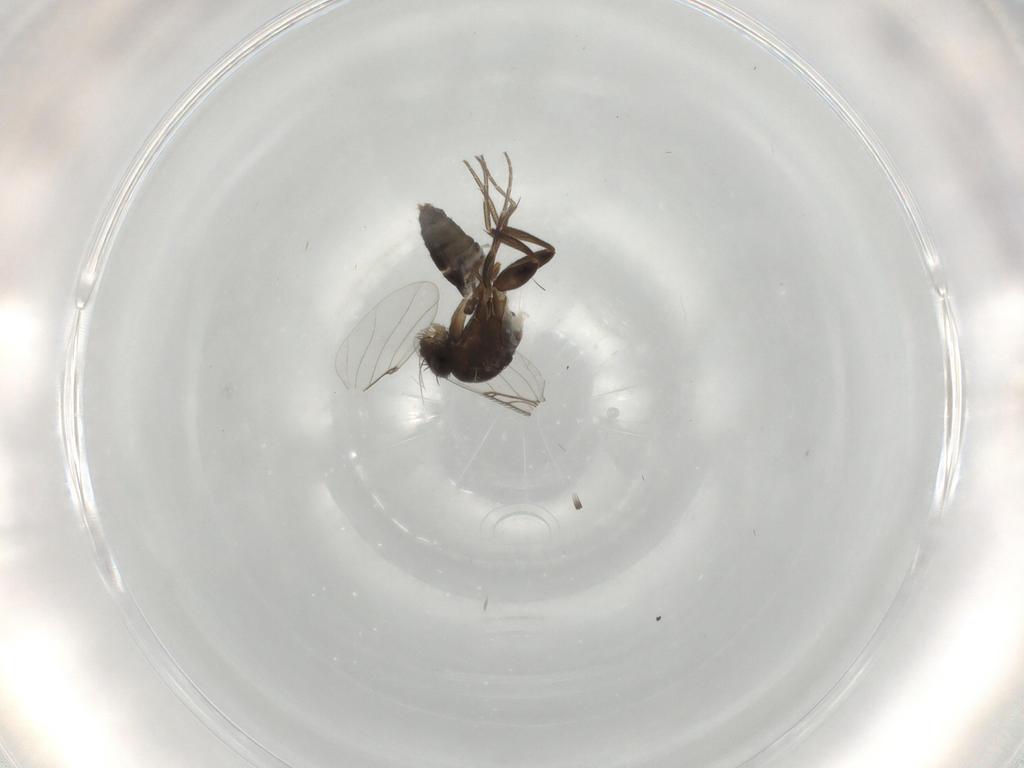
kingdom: Animalia
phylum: Arthropoda
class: Insecta
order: Diptera
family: Phoridae
